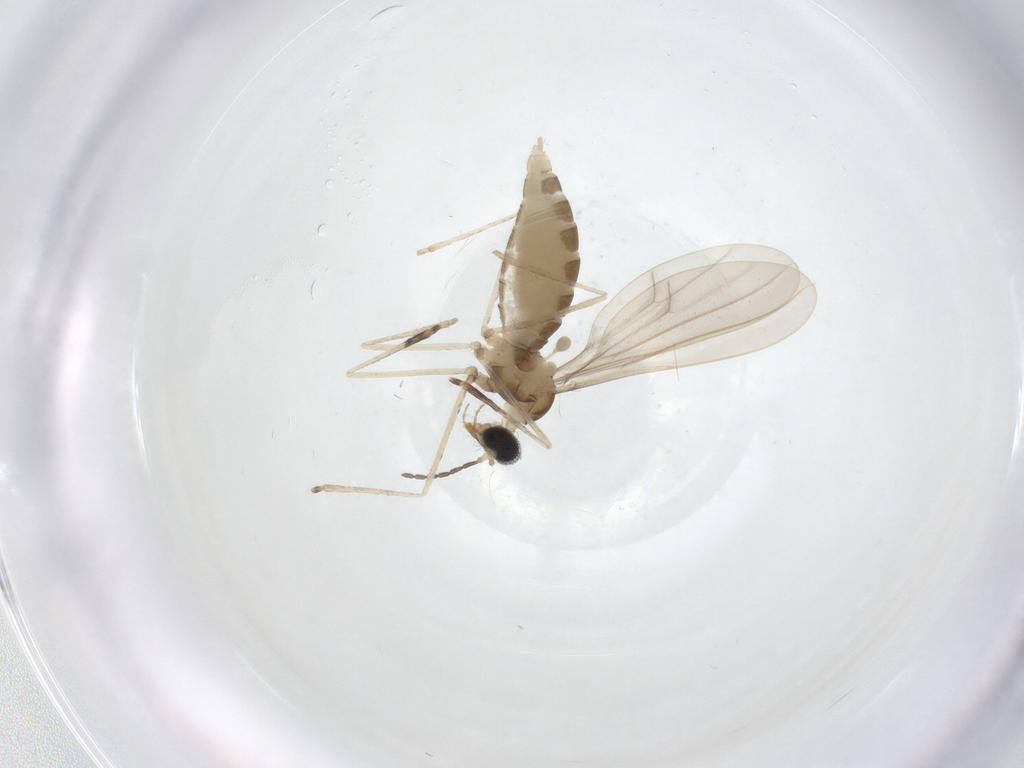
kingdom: Animalia
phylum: Arthropoda
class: Insecta
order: Diptera
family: Cecidomyiidae
